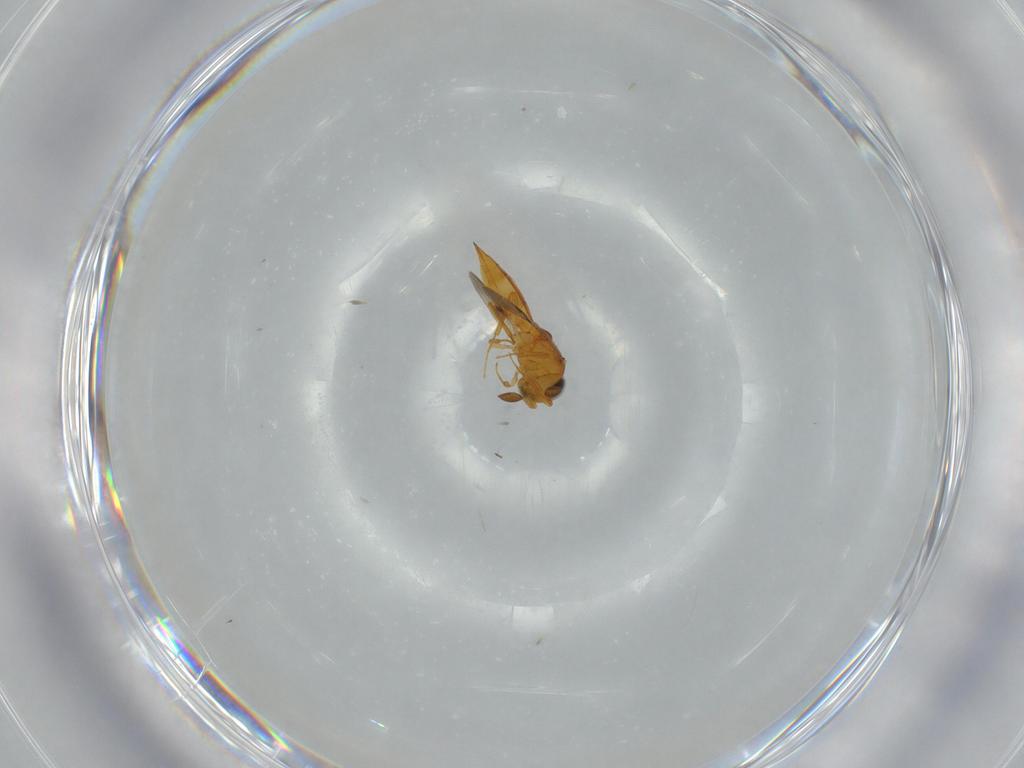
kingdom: Animalia
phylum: Arthropoda
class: Insecta
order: Hymenoptera
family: Scelionidae
